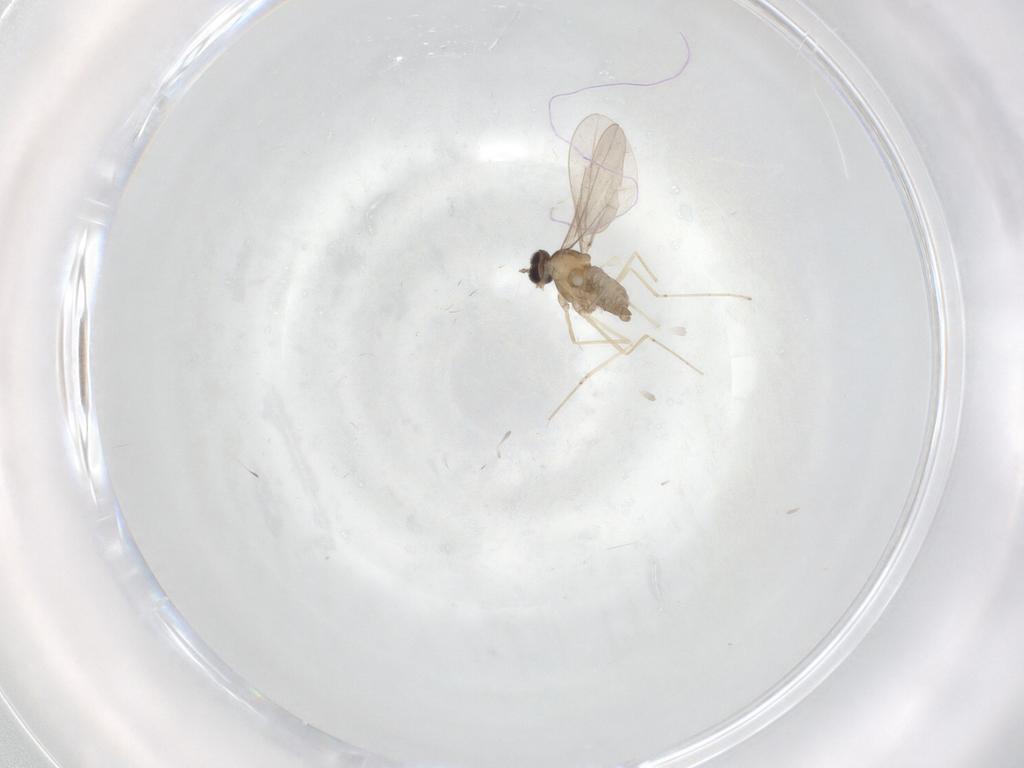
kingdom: Animalia
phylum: Arthropoda
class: Insecta
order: Diptera
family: Cecidomyiidae
